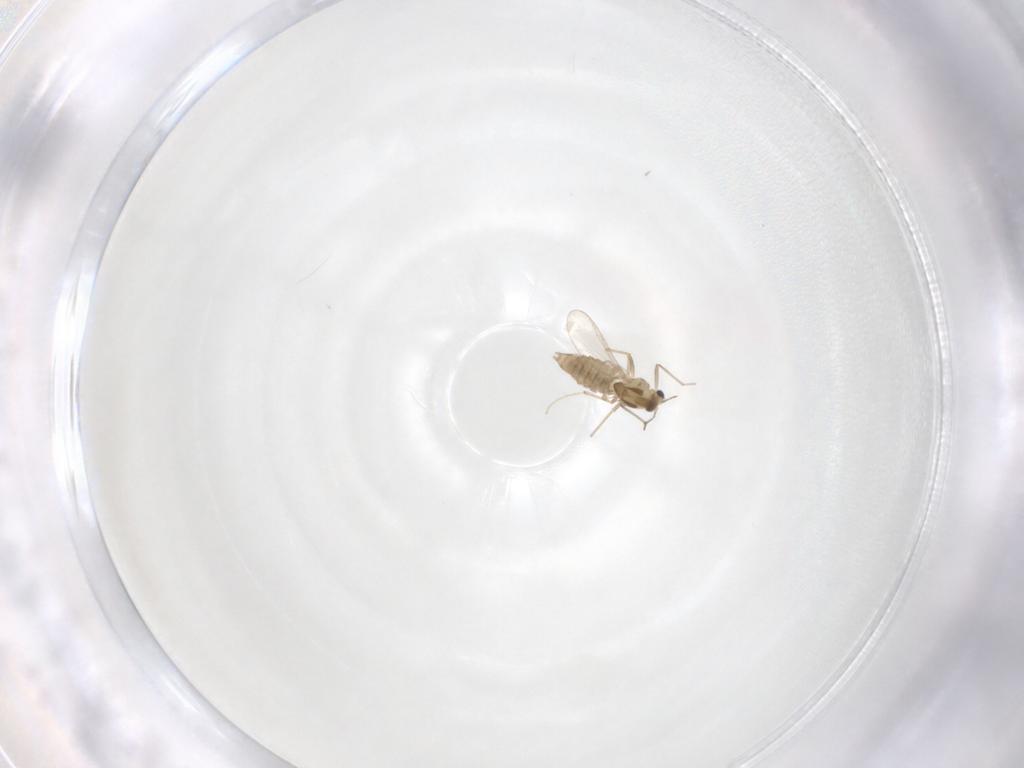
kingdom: Animalia
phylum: Arthropoda
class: Insecta
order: Diptera
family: Chironomidae
